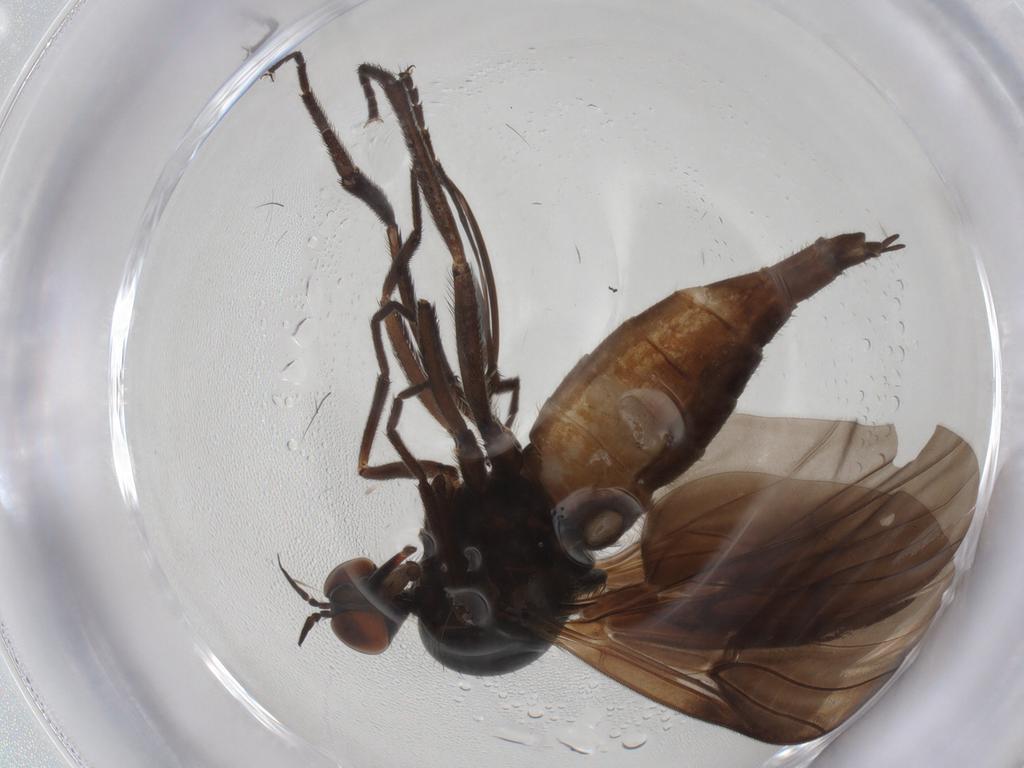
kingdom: Animalia
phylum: Arthropoda
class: Insecta
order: Diptera
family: Empididae
